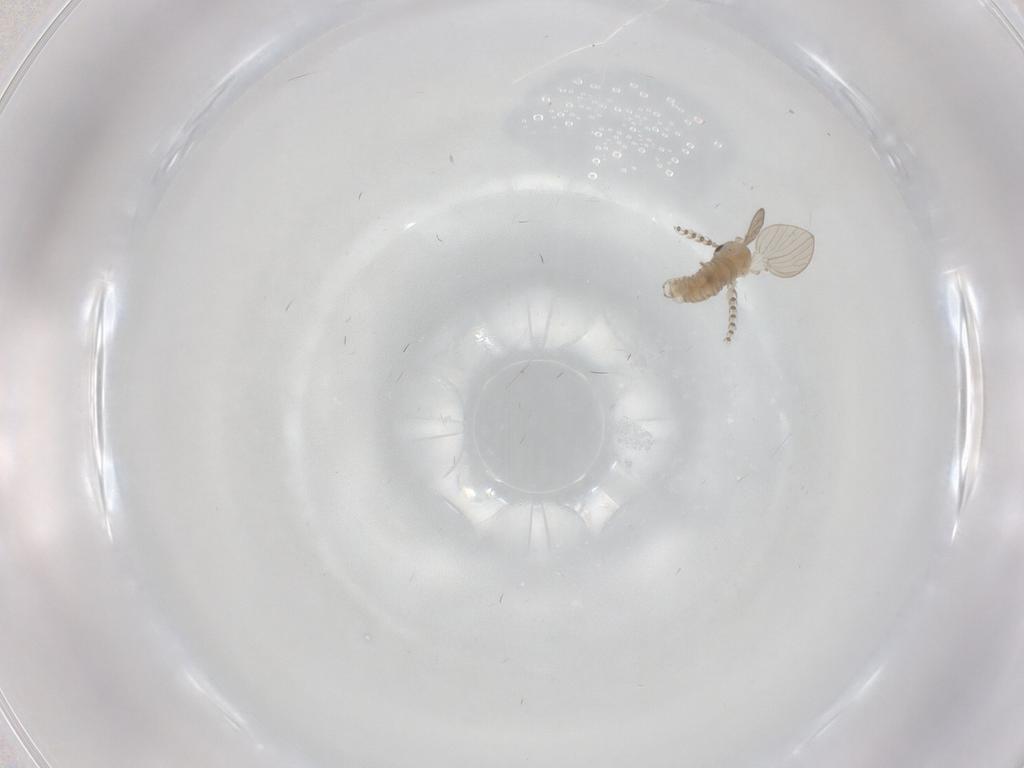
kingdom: Animalia
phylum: Arthropoda
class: Insecta
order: Diptera
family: Psychodidae
